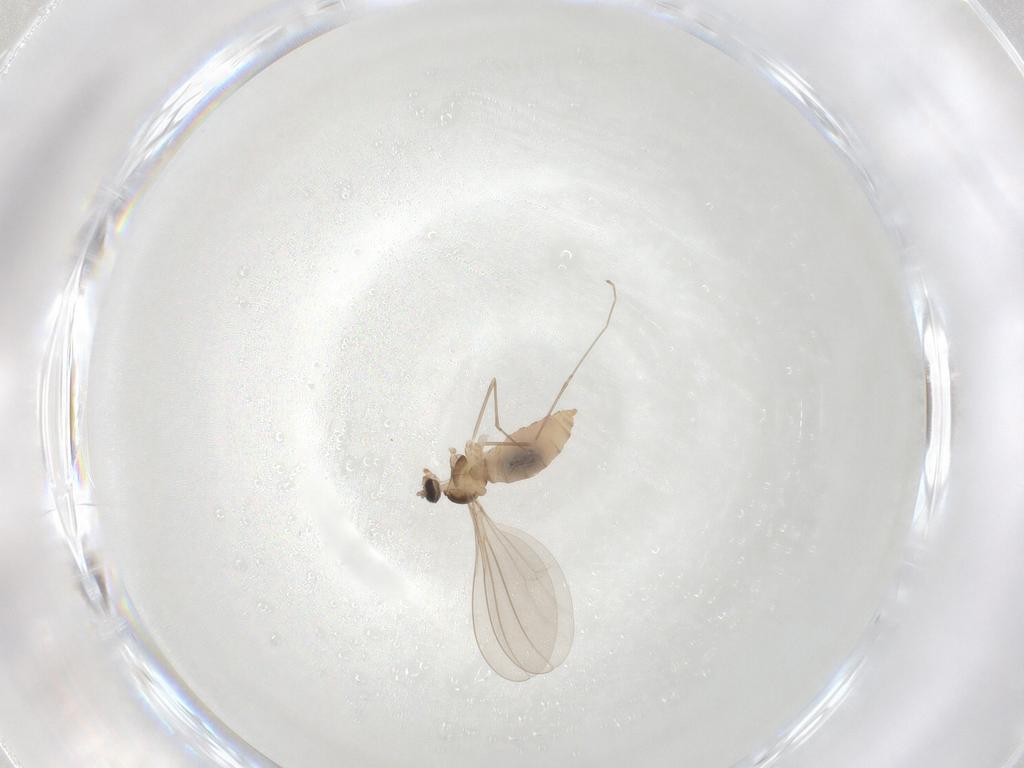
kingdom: Animalia
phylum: Arthropoda
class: Insecta
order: Diptera
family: Cecidomyiidae
